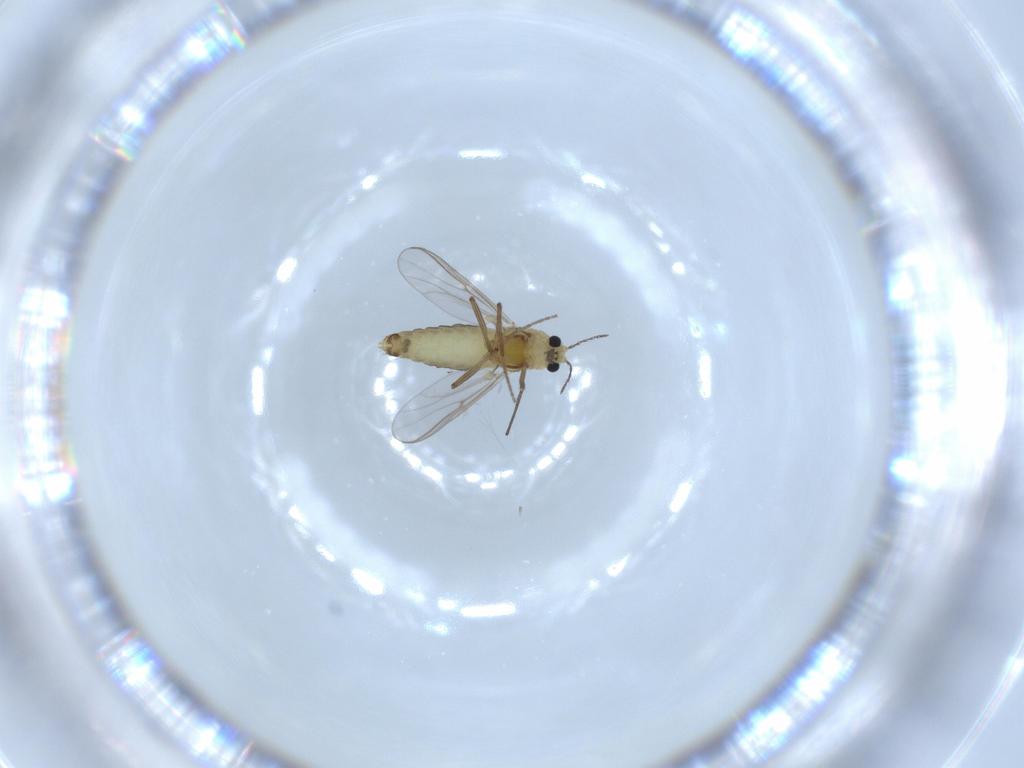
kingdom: Animalia
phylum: Arthropoda
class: Insecta
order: Diptera
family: Chironomidae
